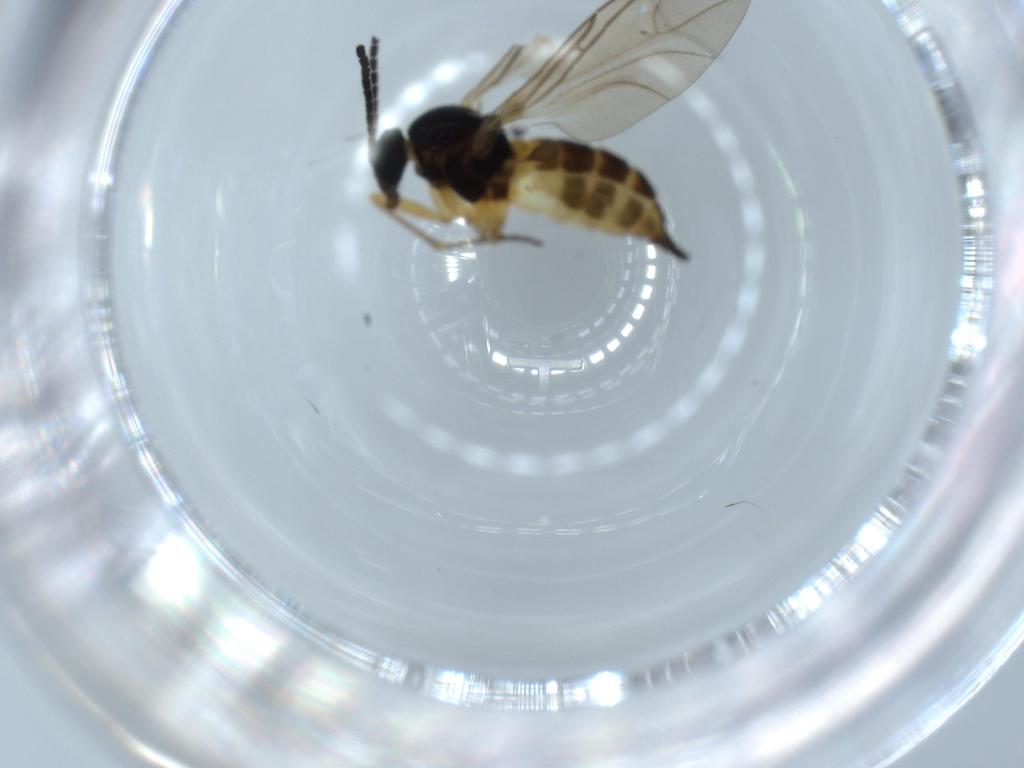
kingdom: Animalia
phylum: Arthropoda
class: Insecta
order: Diptera
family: Sciaridae
